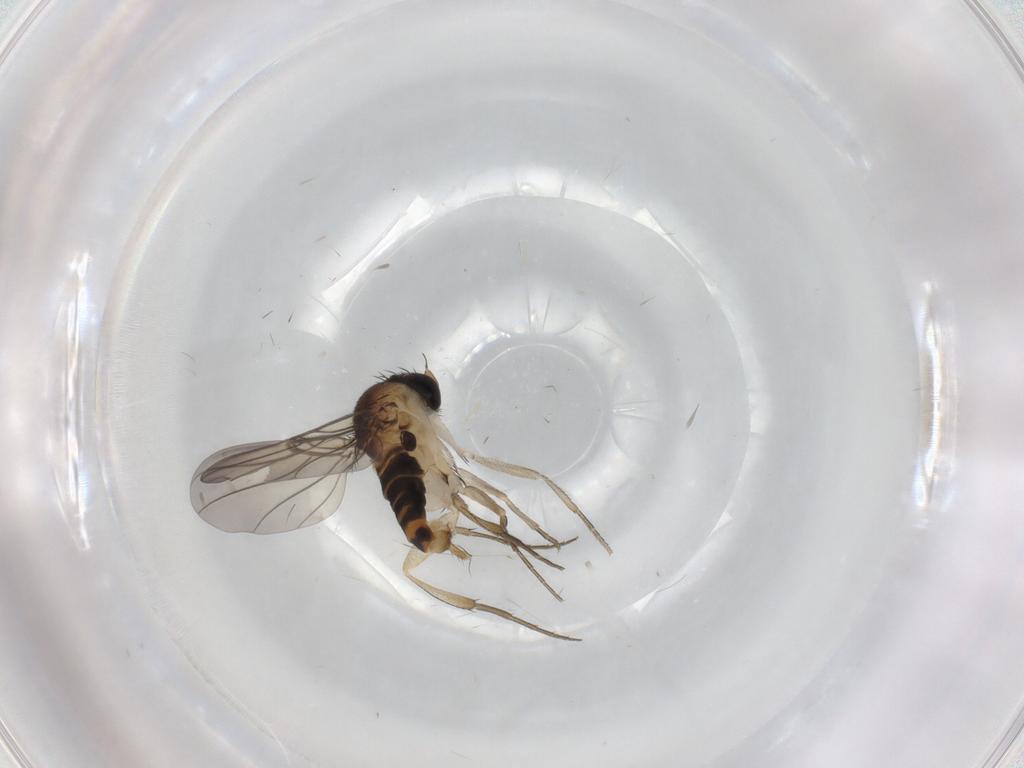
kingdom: Animalia
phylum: Arthropoda
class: Insecta
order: Diptera
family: Phoridae
